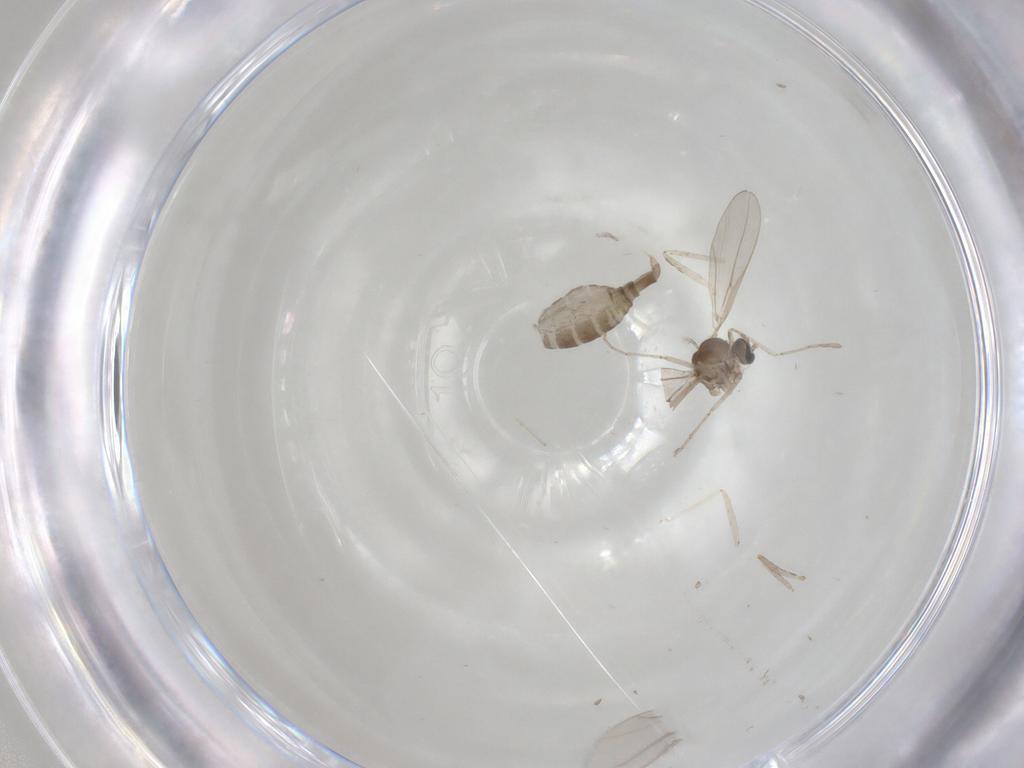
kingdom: Animalia
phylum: Arthropoda
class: Insecta
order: Diptera
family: Cecidomyiidae
